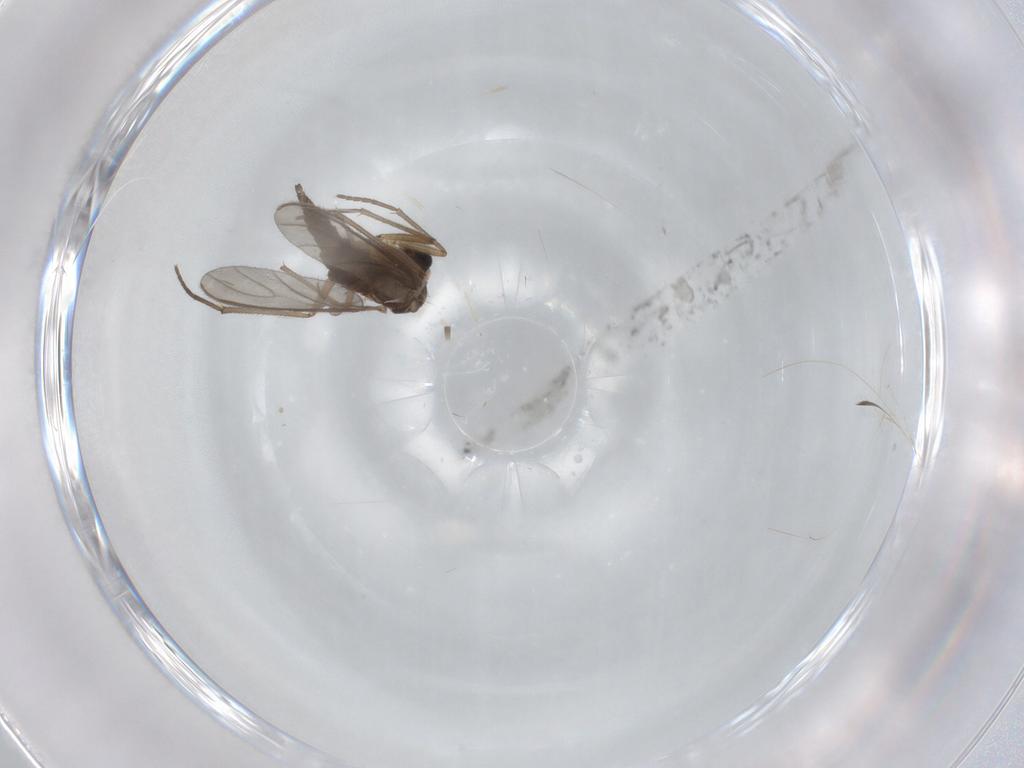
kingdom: Animalia
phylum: Arthropoda
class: Insecta
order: Diptera
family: Sciaridae
